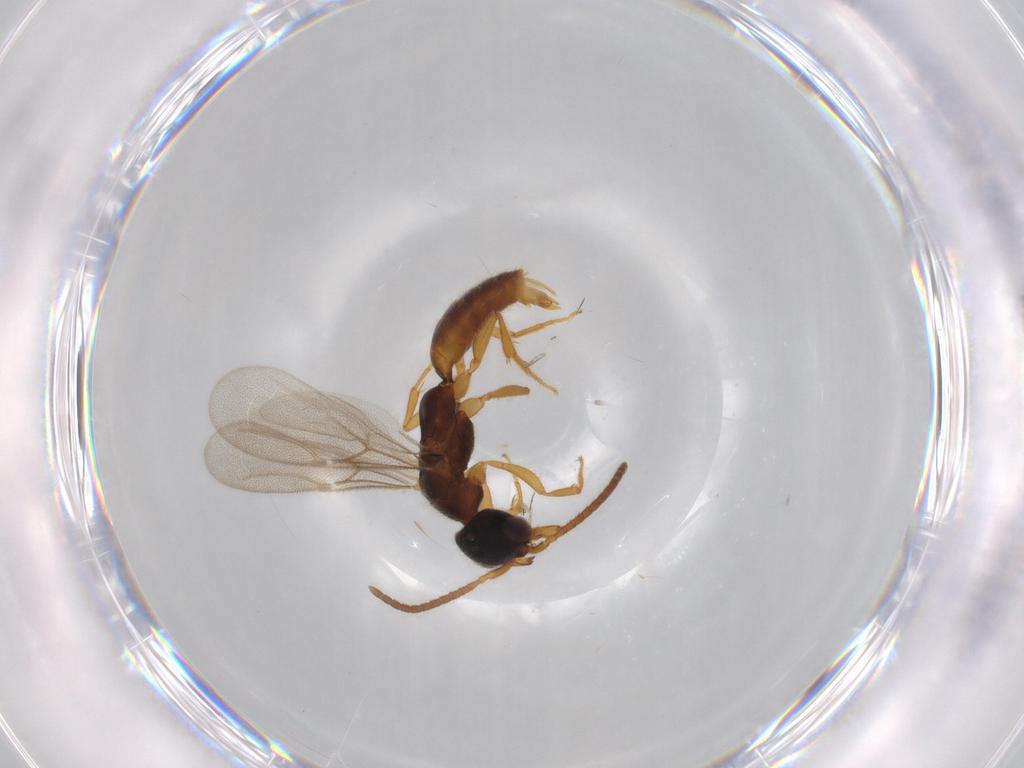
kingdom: Animalia
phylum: Arthropoda
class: Insecta
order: Hymenoptera
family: Bethylidae
